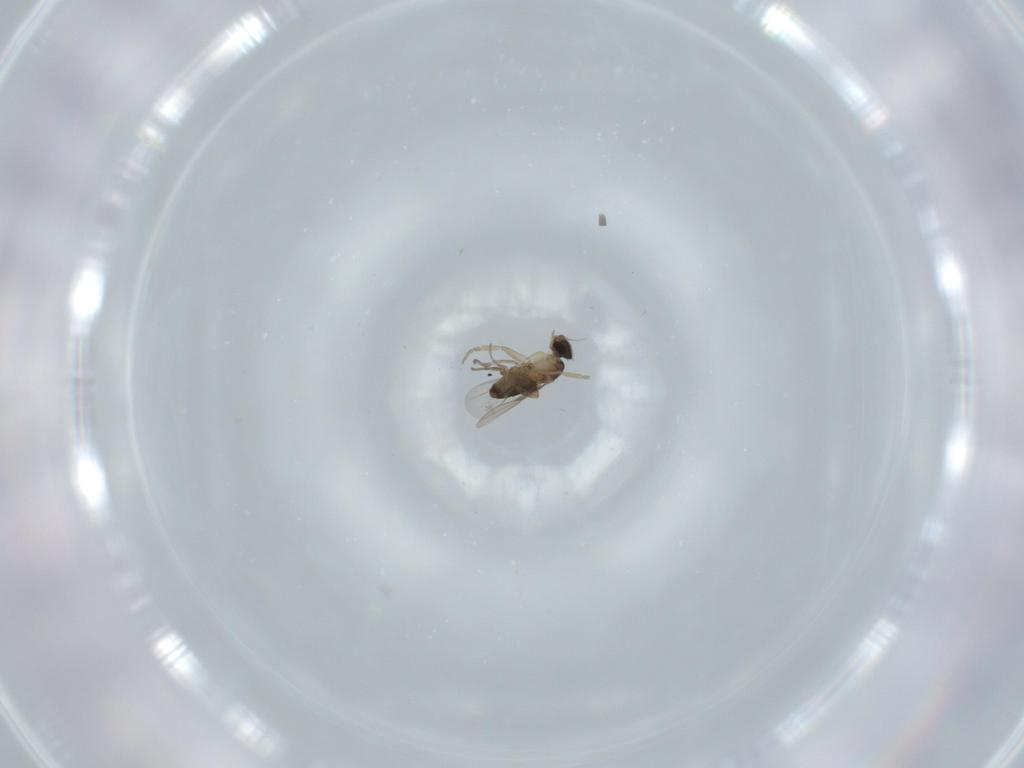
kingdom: Animalia
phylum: Arthropoda
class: Insecta
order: Diptera
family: Phoridae
